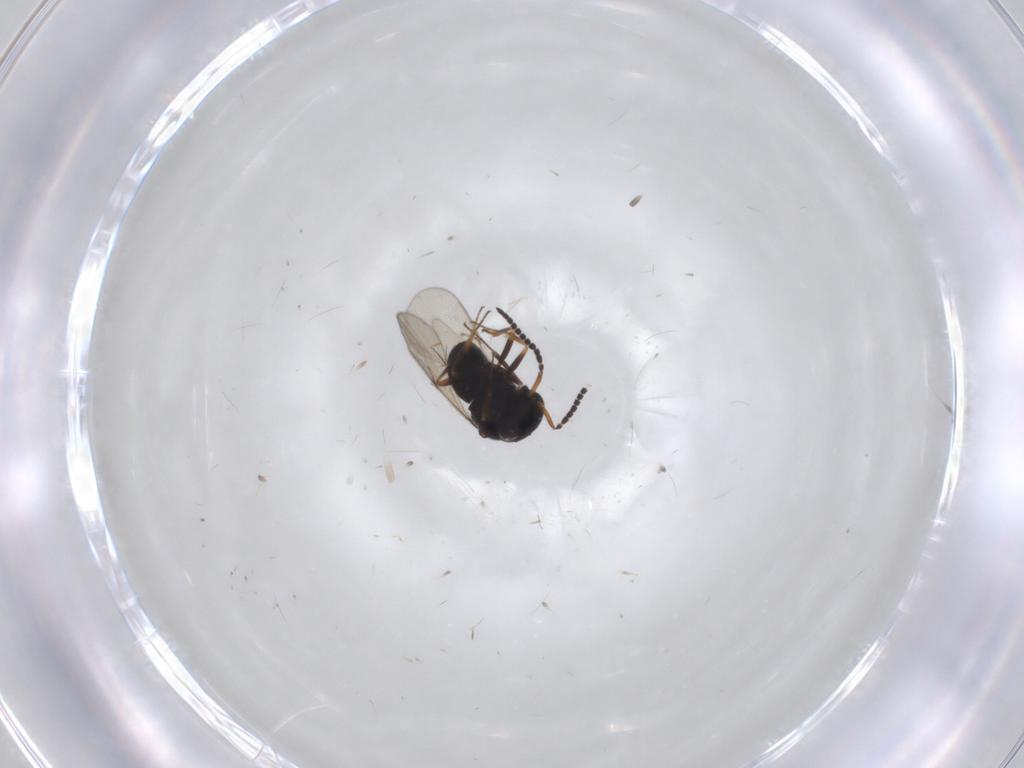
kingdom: Animalia
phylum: Arthropoda
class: Insecta
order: Hymenoptera
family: Scelionidae
